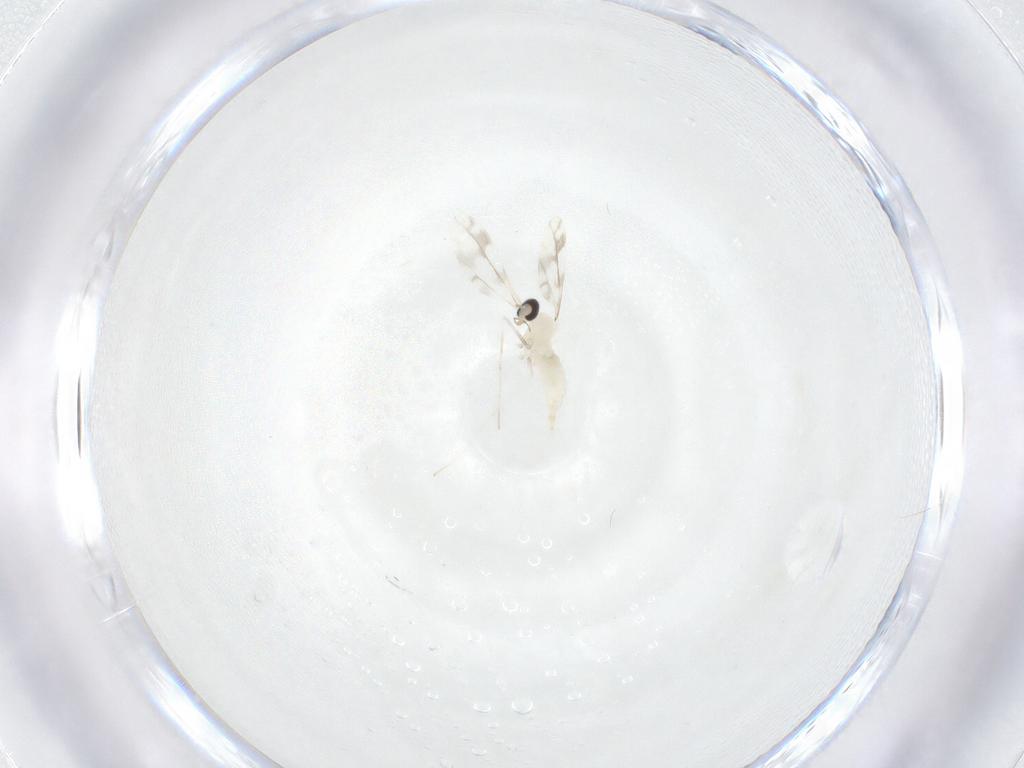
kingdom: Animalia
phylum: Arthropoda
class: Insecta
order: Diptera
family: Cecidomyiidae
